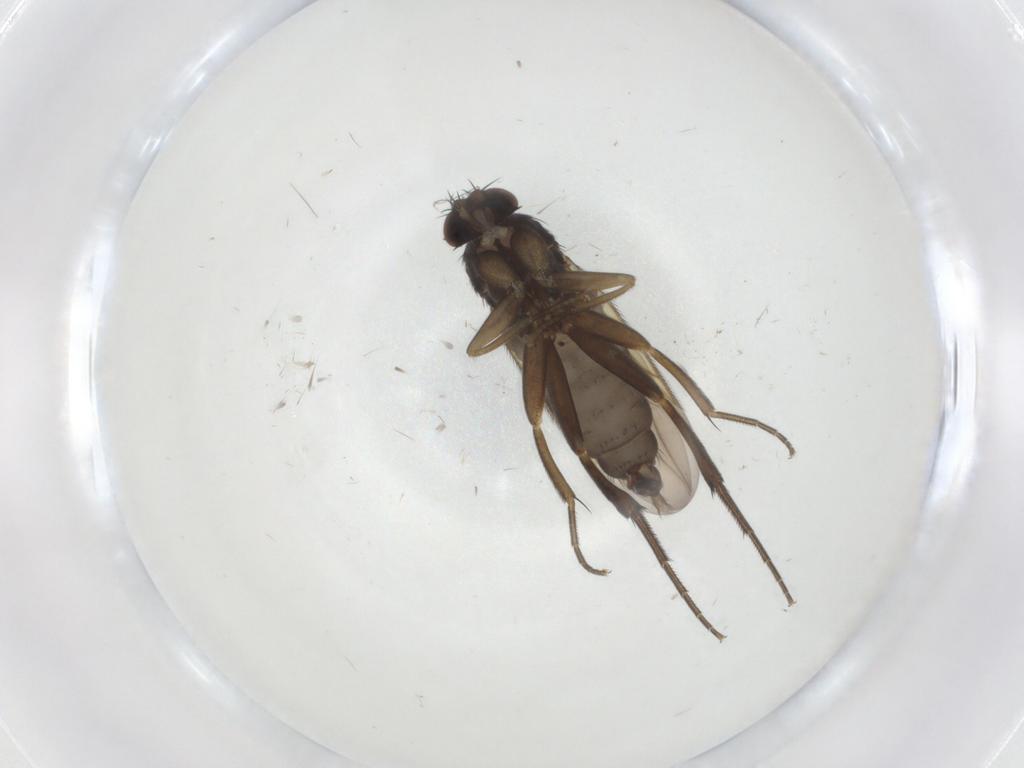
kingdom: Animalia
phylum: Arthropoda
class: Insecta
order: Diptera
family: Phoridae
